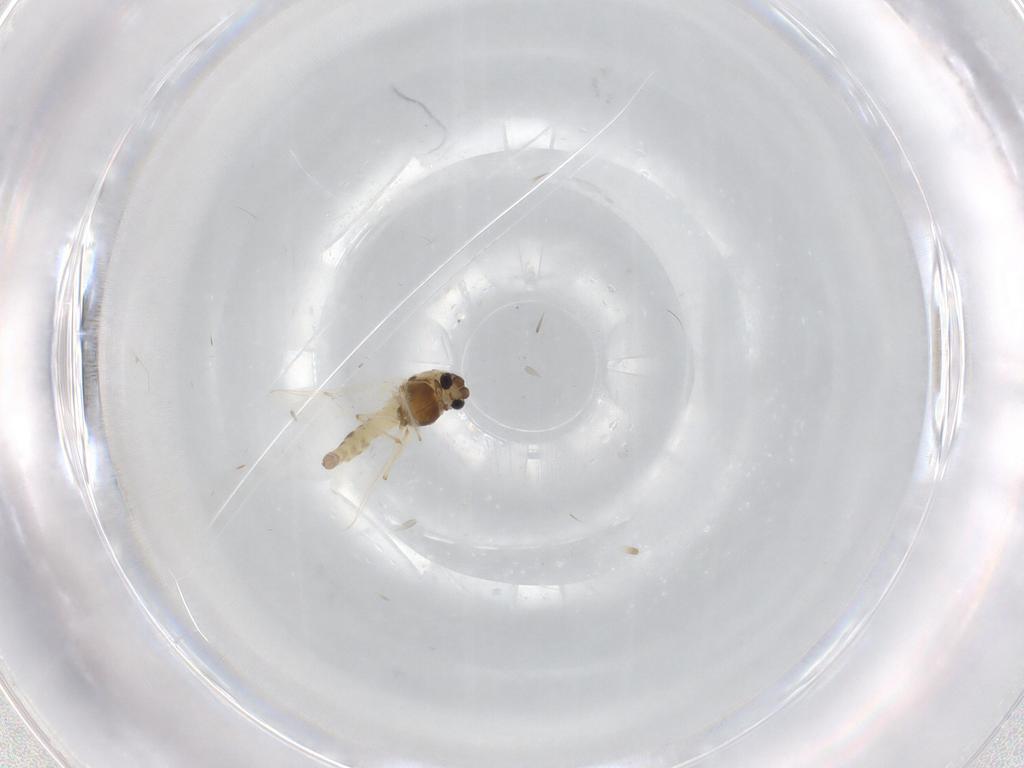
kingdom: Animalia
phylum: Arthropoda
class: Insecta
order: Diptera
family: Chironomidae
